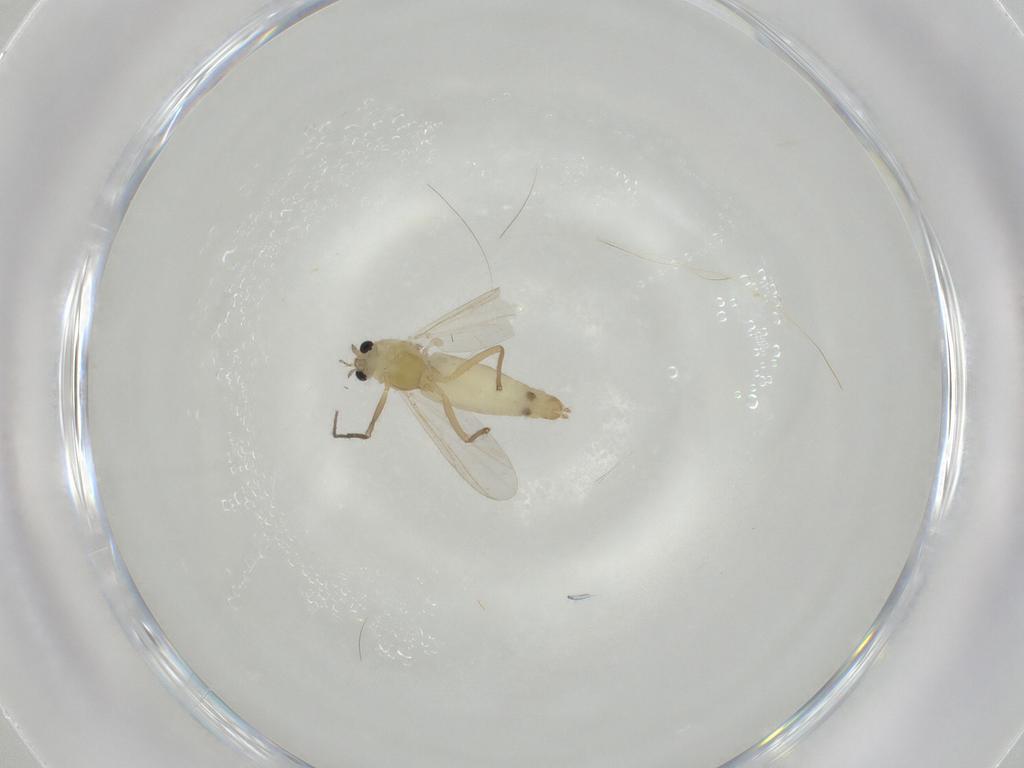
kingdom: Animalia
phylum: Arthropoda
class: Insecta
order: Diptera
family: Chironomidae
